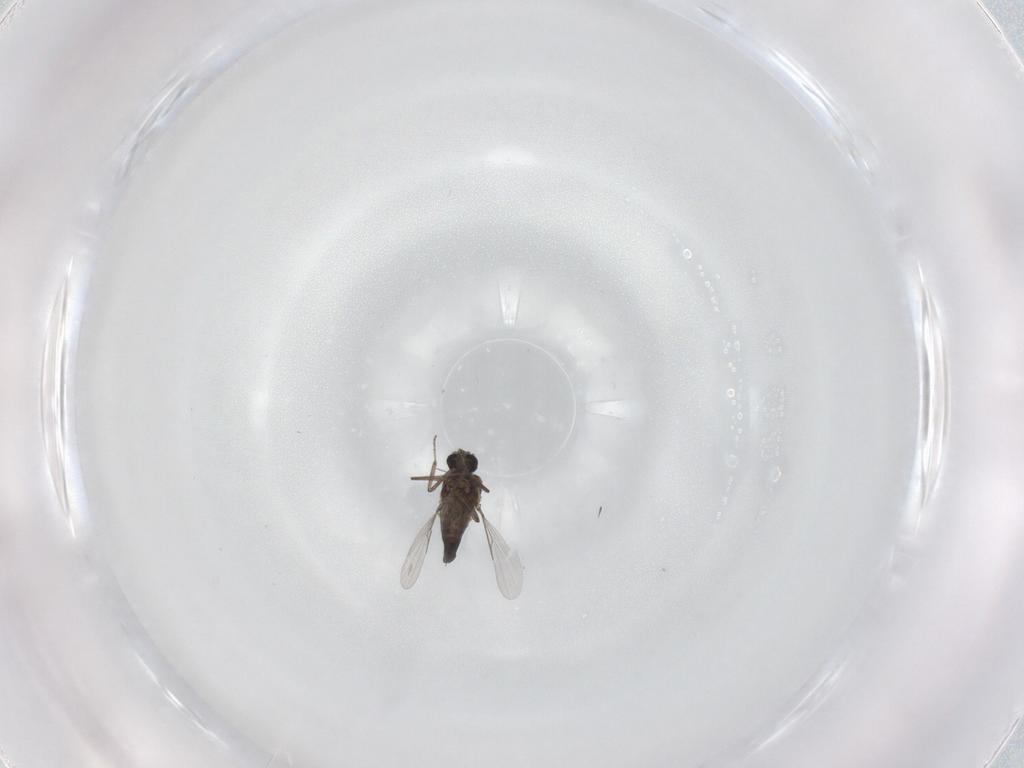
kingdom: Animalia
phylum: Arthropoda
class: Insecta
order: Diptera
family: Ceratopogonidae
